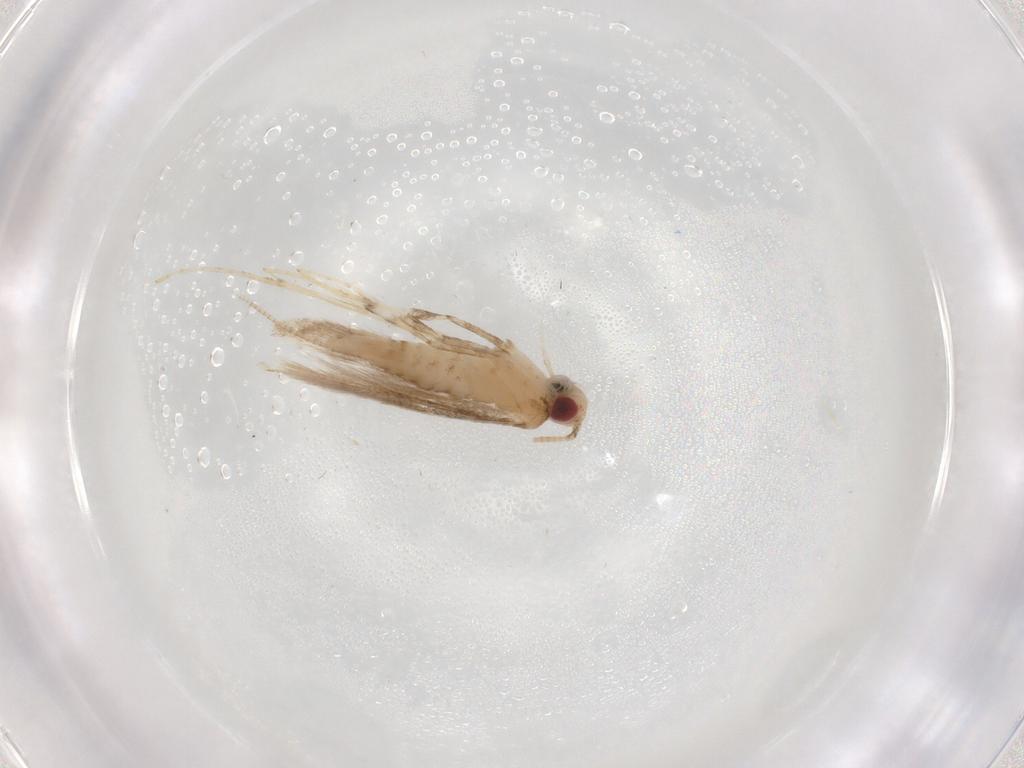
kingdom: Animalia
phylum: Arthropoda
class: Insecta
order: Lepidoptera
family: Gracillariidae
